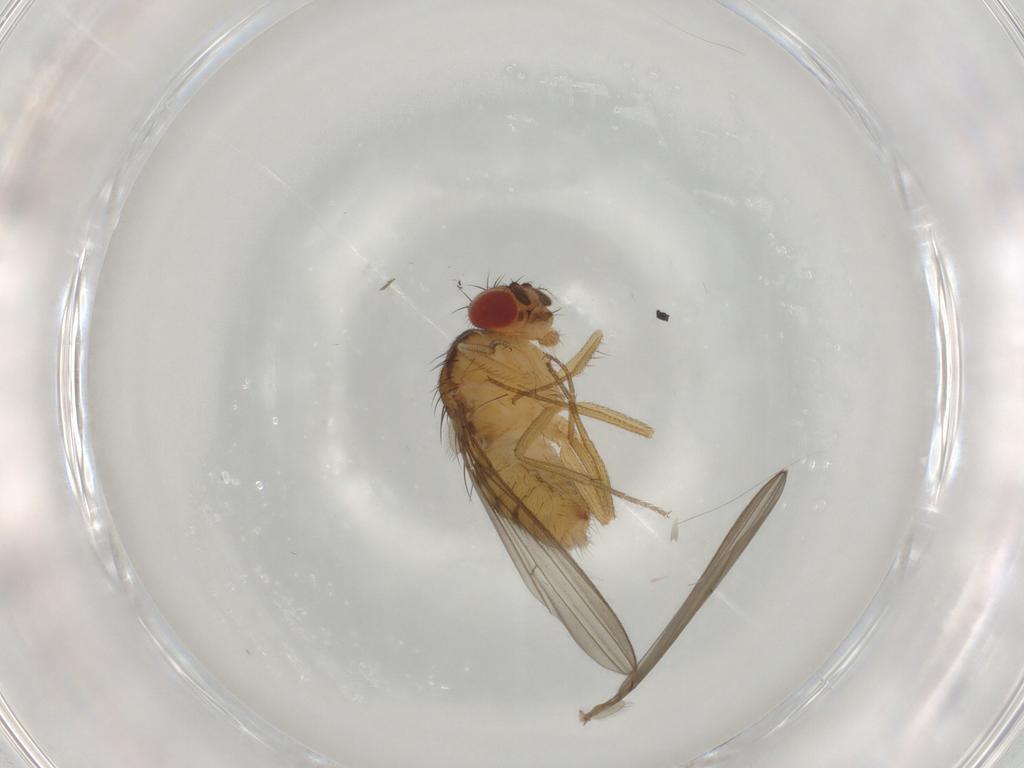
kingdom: Animalia
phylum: Arthropoda
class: Insecta
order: Diptera
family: Drosophilidae
